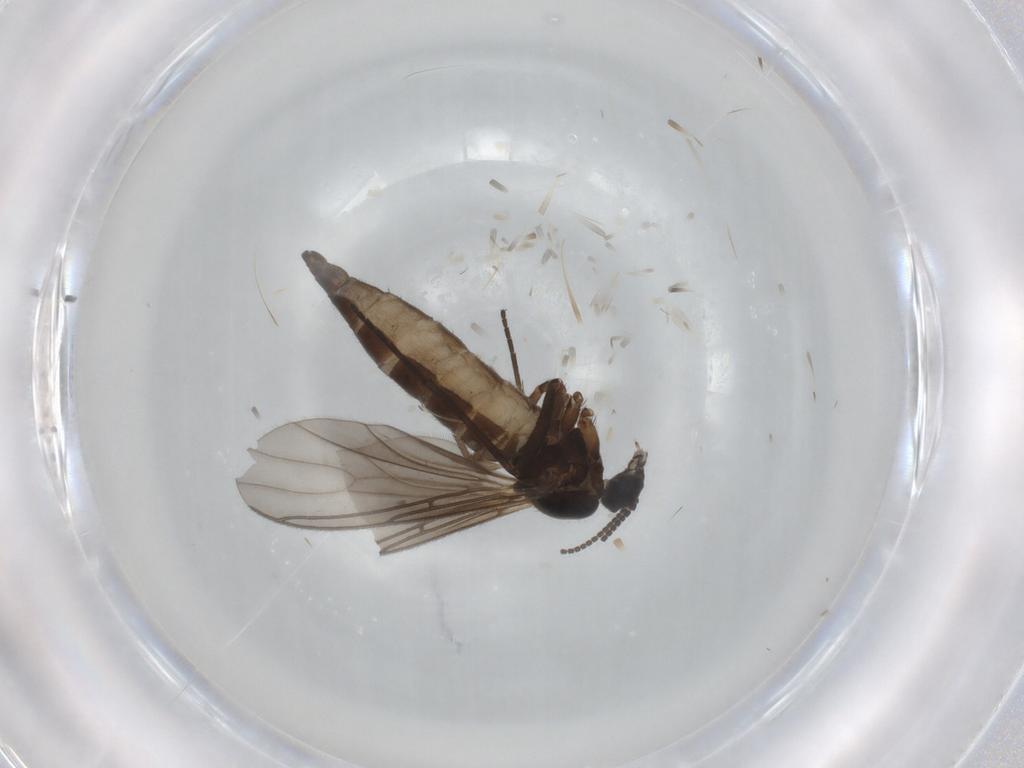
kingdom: Animalia
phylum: Arthropoda
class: Insecta
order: Diptera
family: Sciaridae
